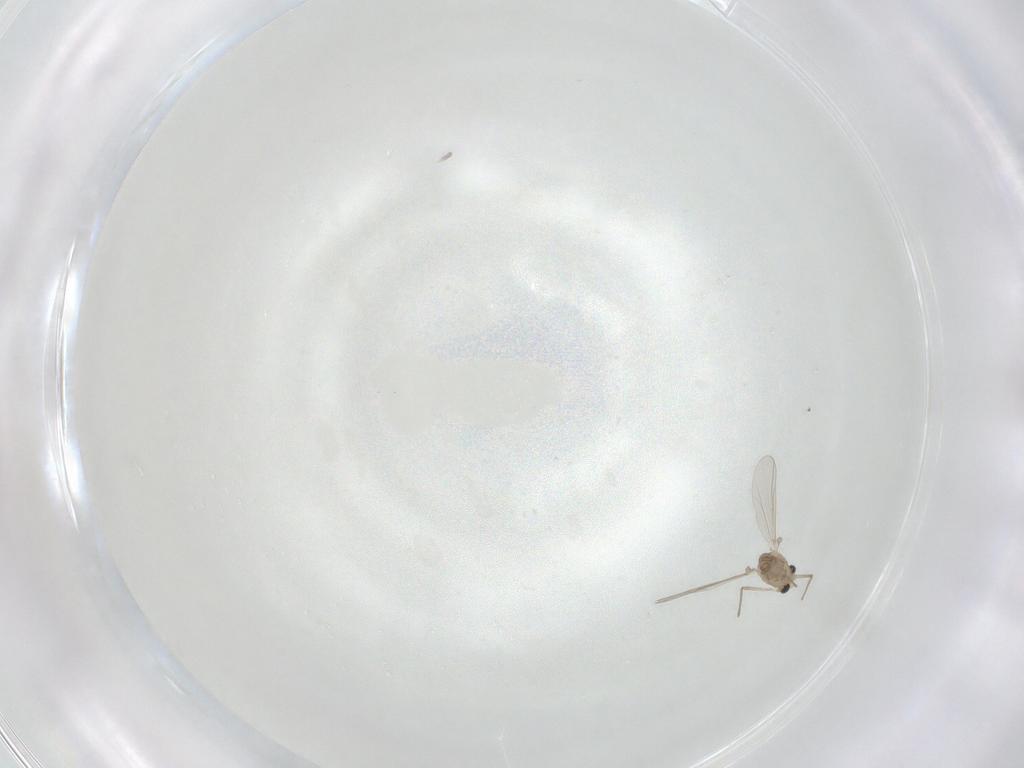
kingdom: Animalia
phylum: Arthropoda
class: Insecta
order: Diptera
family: Chironomidae
